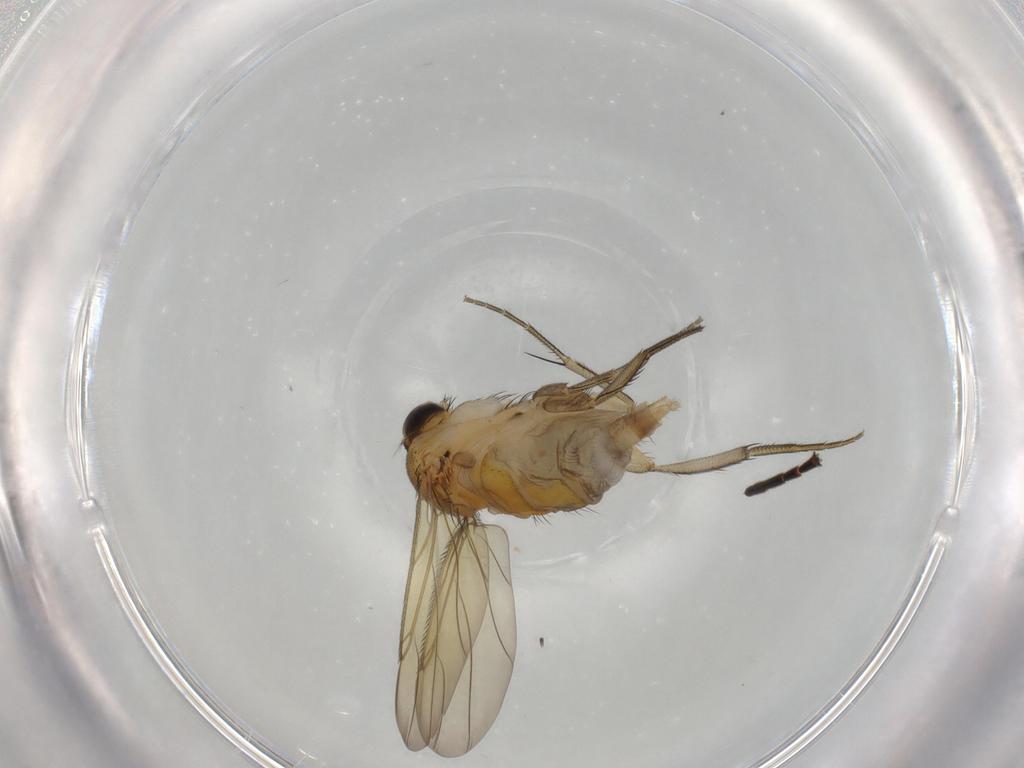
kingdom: Animalia
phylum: Arthropoda
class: Insecta
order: Diptera
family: Phoridae
